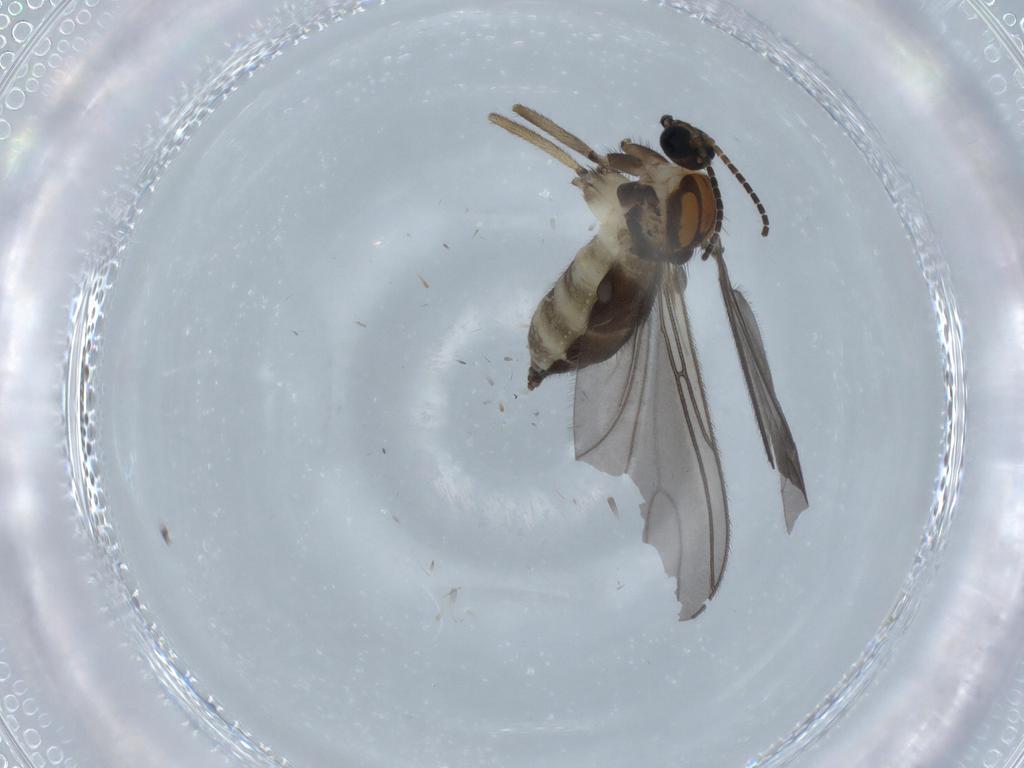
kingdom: Animalia
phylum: Arthropoda
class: Insecta
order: Diptera
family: Sciaridae
